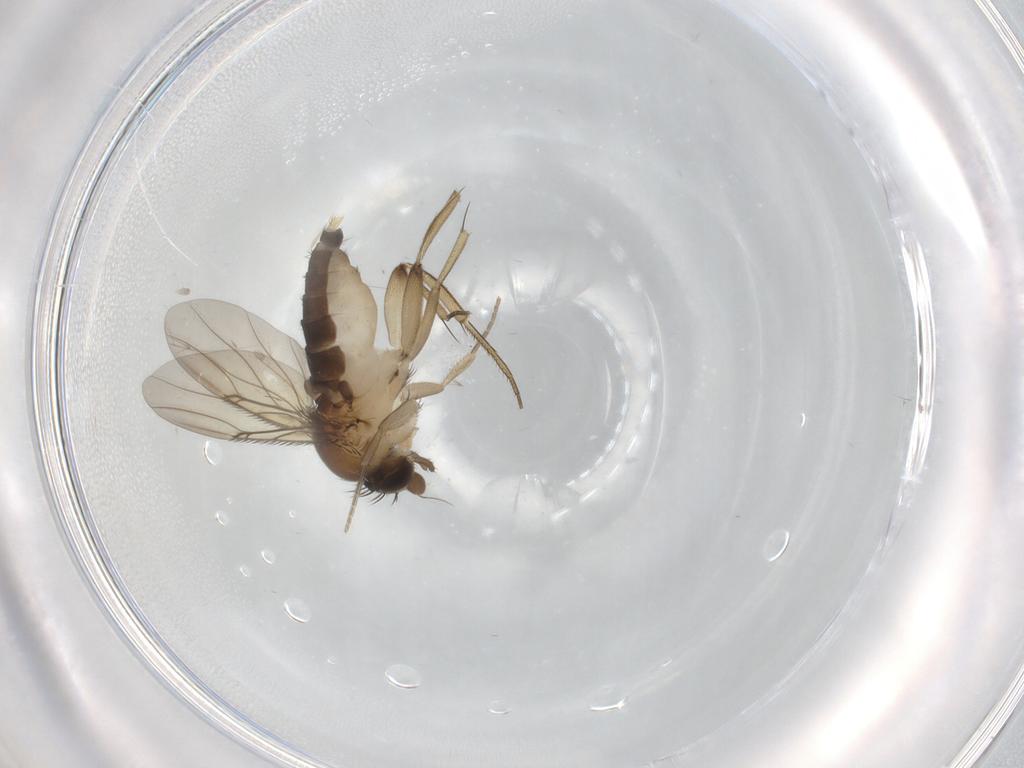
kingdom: Animalia
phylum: Arthropoda
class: Insecta
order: Diptera
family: Phoridae
